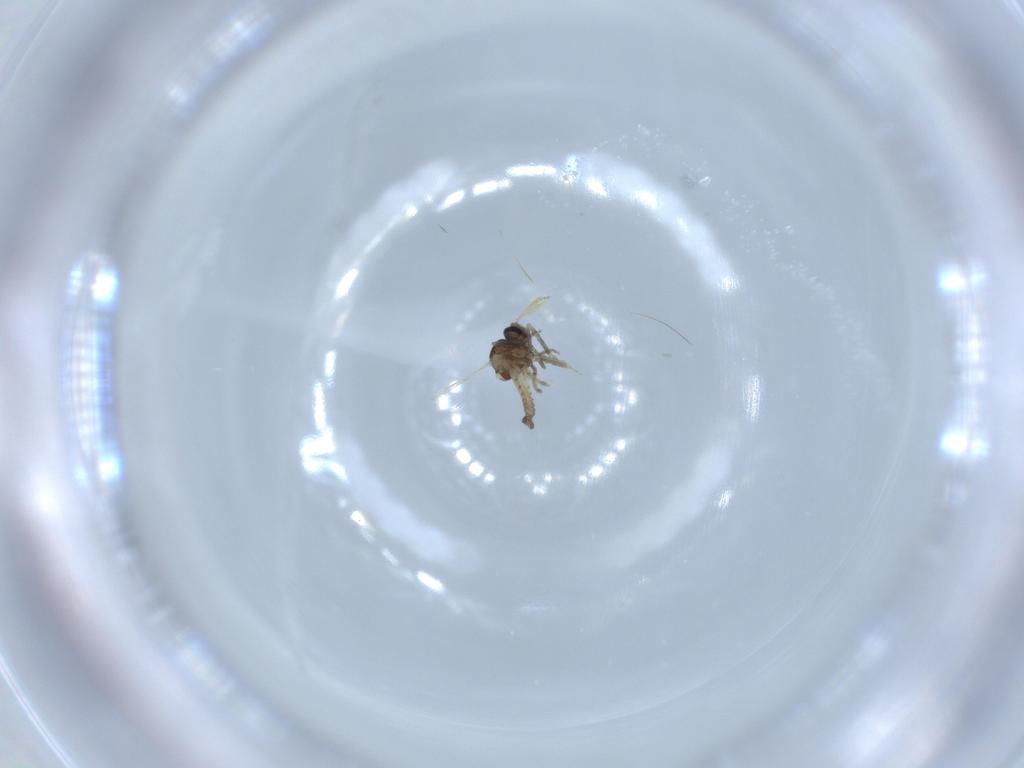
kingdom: Animalia
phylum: Arthropoda
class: Insecta
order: Diptera
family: Ceratopogonidae
